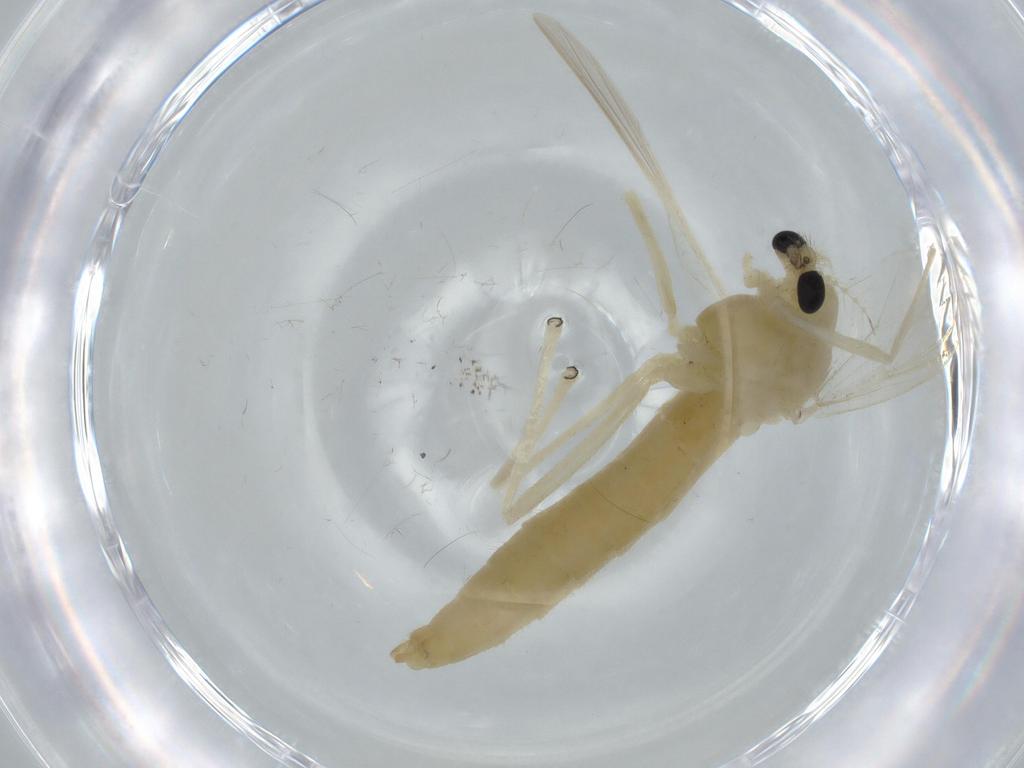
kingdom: Animalia
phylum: Arthropoda
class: Insecta
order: Diptera
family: Chironomidae
